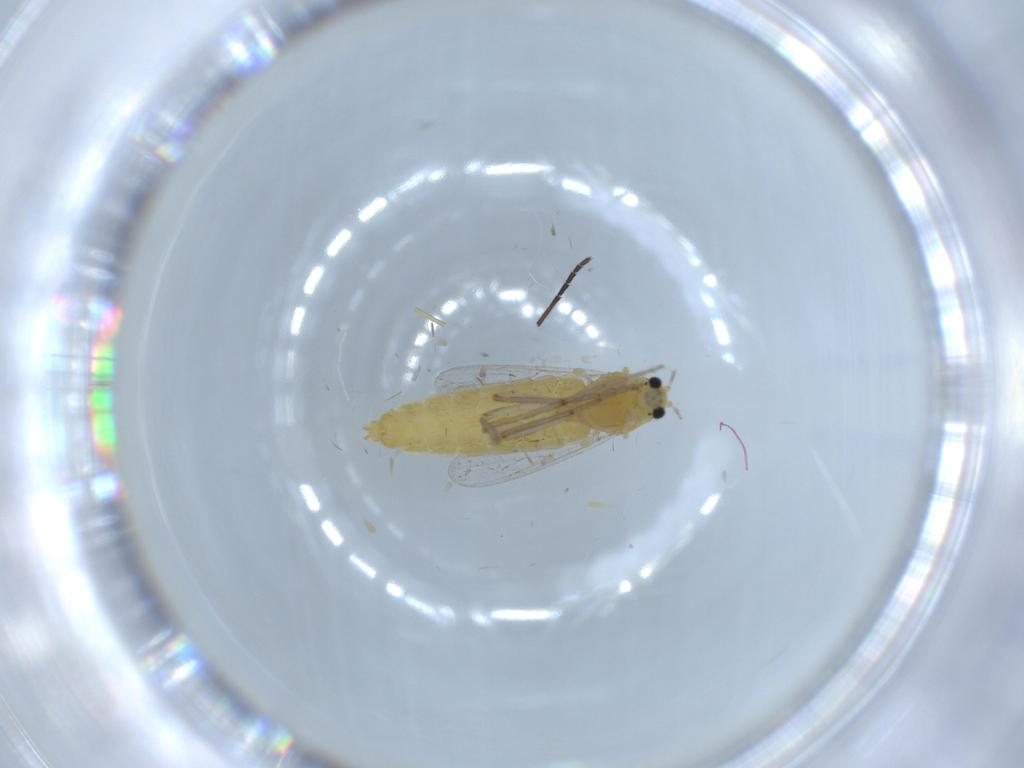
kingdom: Animalia
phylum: Arthropoda
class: Insecta
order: Diptera
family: Chironomidae
